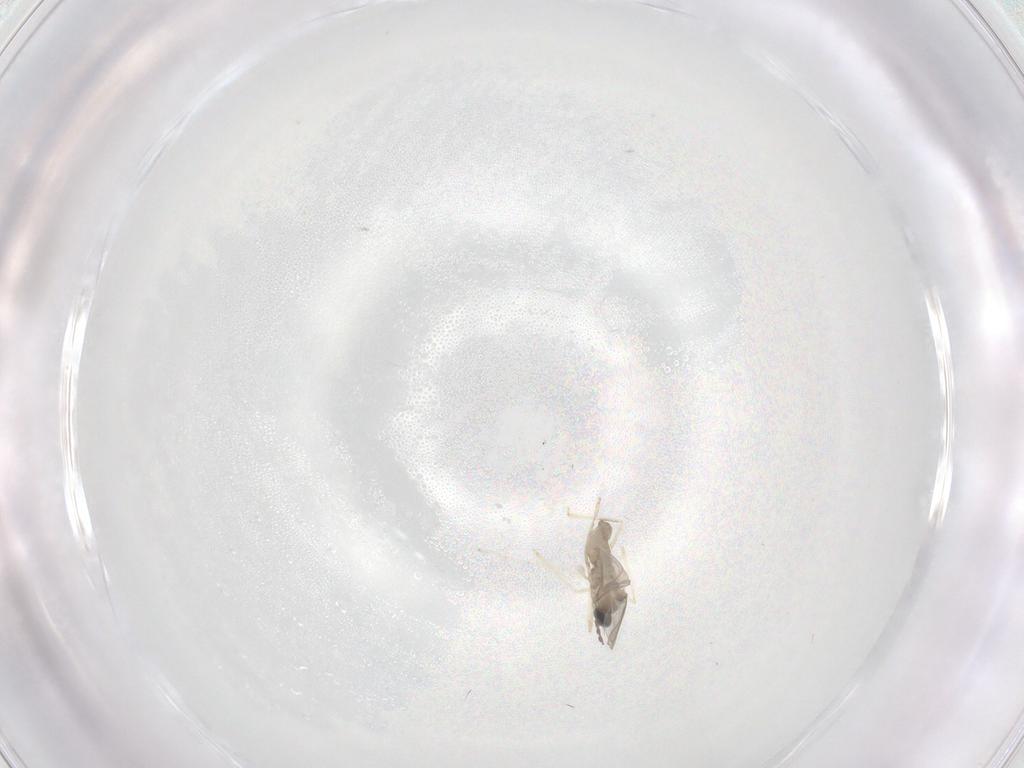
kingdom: Animalia
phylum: Arthropoda
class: Insecta
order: Diptera
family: Cecidomyiidae
